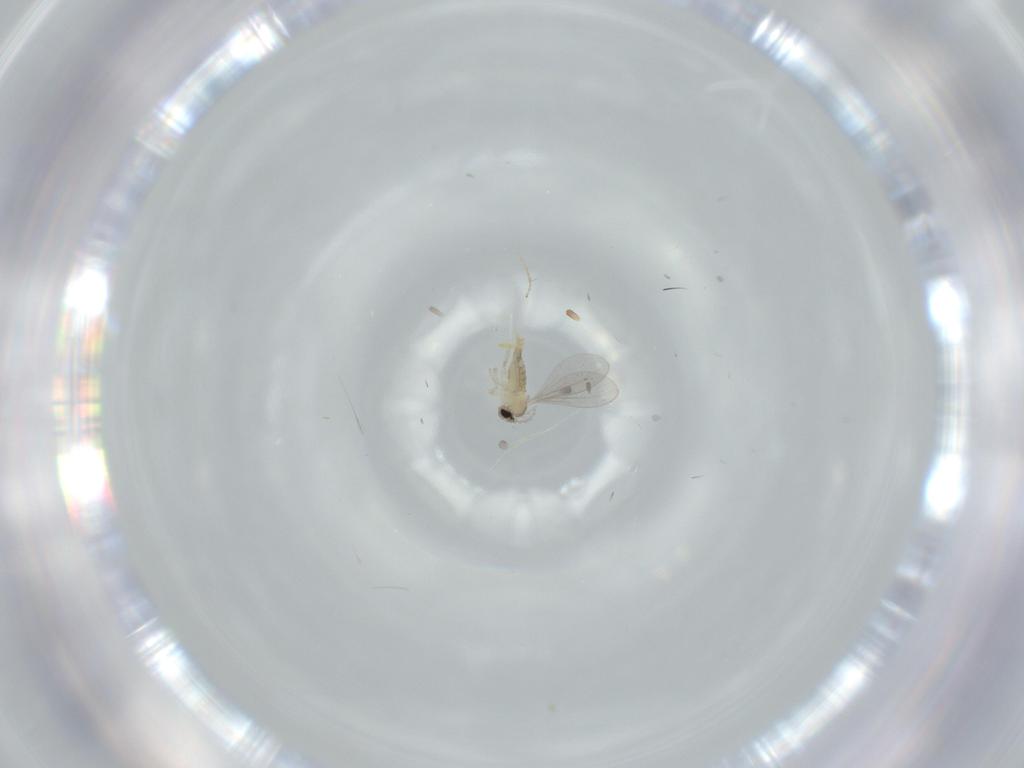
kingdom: Animalia
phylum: Arthropoda
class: Insecta
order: Diptera
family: Cecidomyiidae
